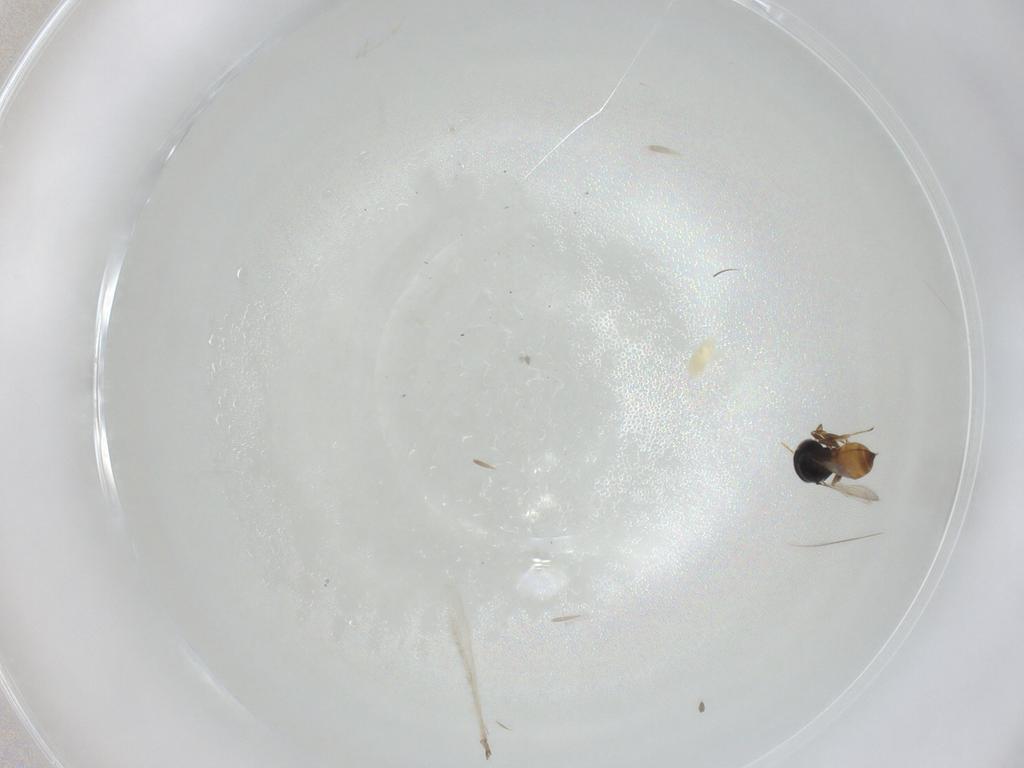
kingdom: Animalia
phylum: Arthropoda
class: Insecta
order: Hymenoptera
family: Scelionidae
